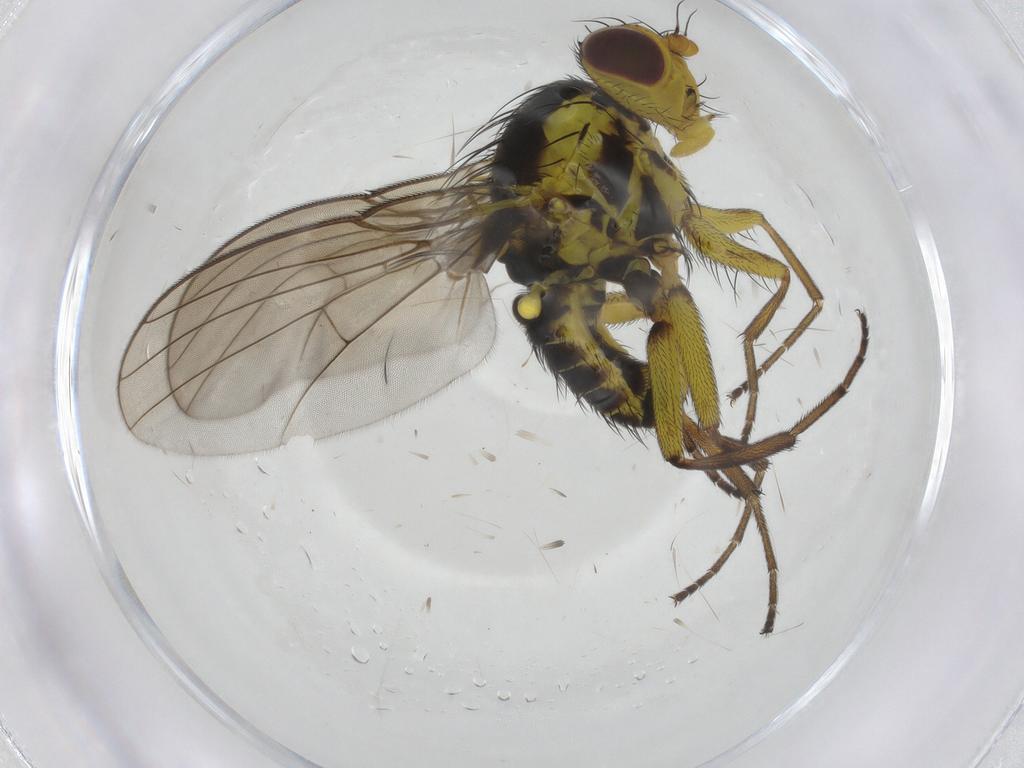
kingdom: Animalia
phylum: Arthropoda
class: Insecta
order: Diptera
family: Agromyzidae
